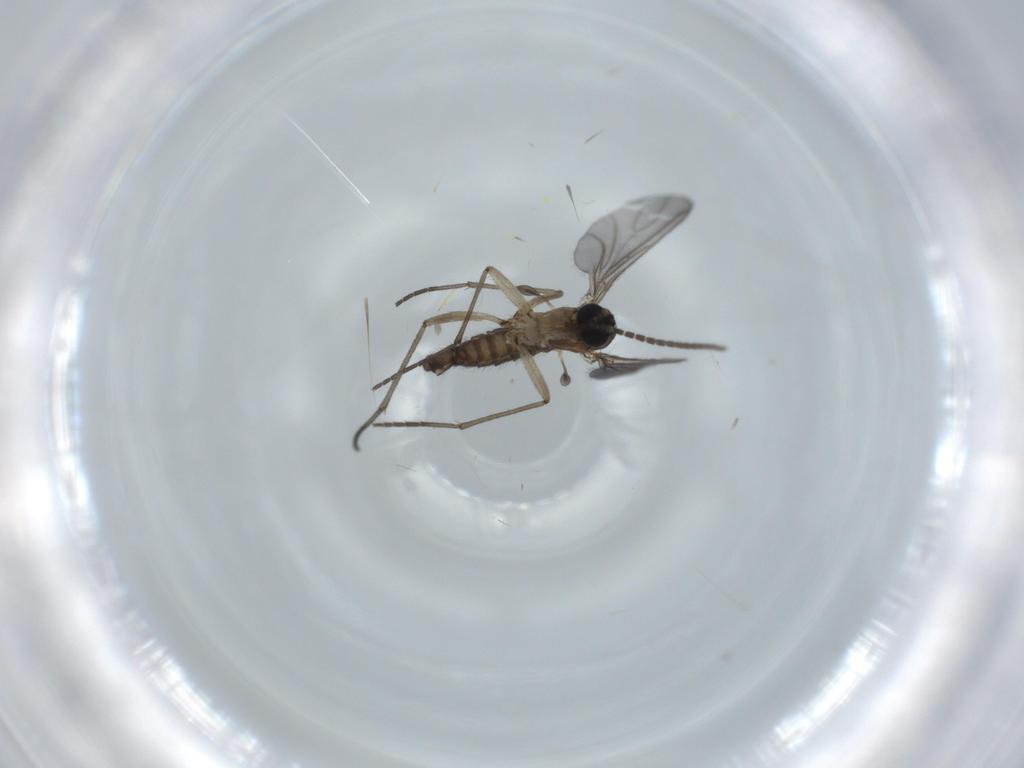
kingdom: Animalia
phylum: Arthropoda
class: Insecta
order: Diptera
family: Sciaridae
